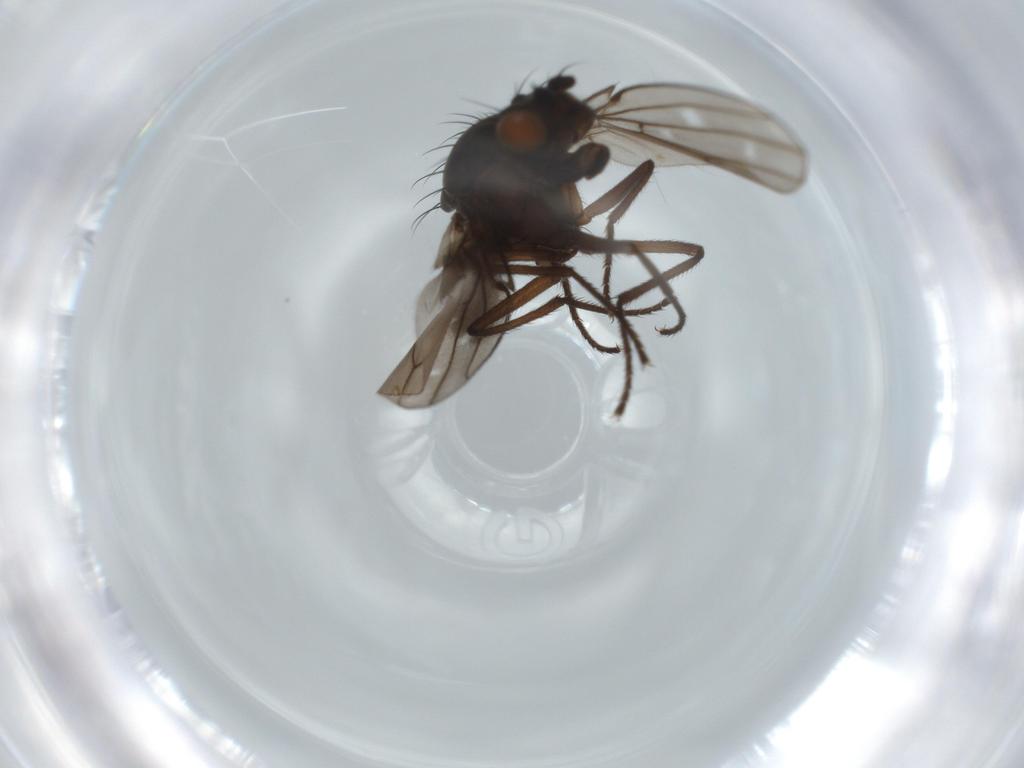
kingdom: Animalia
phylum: Arthropoda
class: Insecta
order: Diptera
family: Ephydridae
